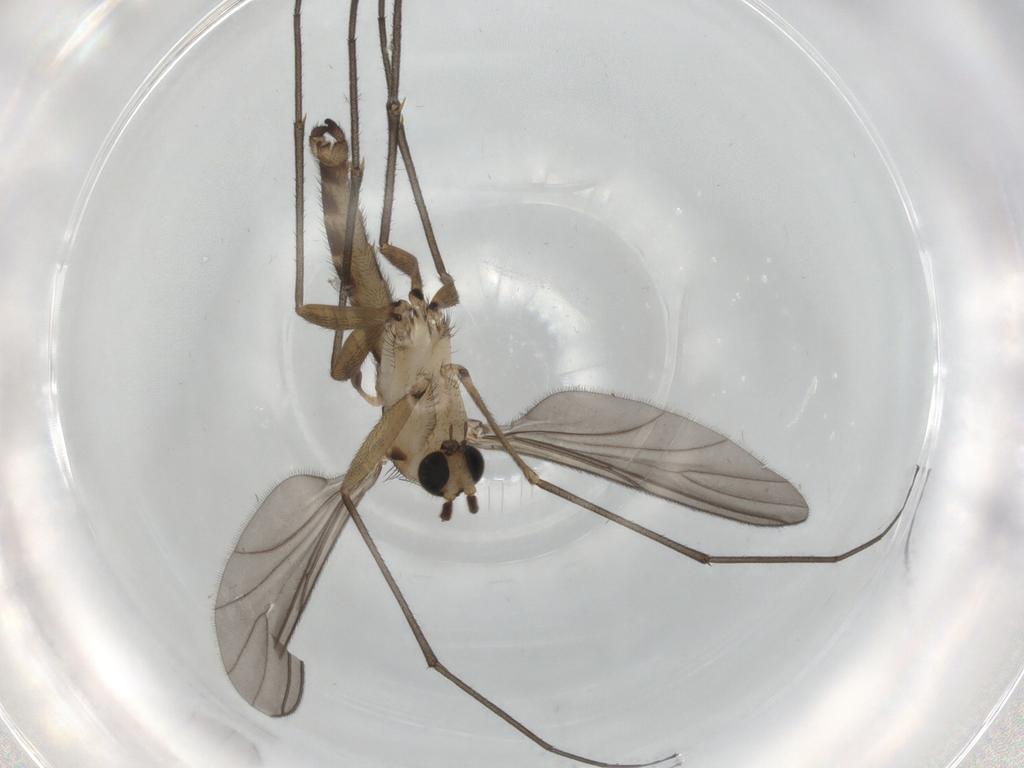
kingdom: Animalia
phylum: Arthropoda
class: Insecta
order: Diptera
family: Sciaridae
